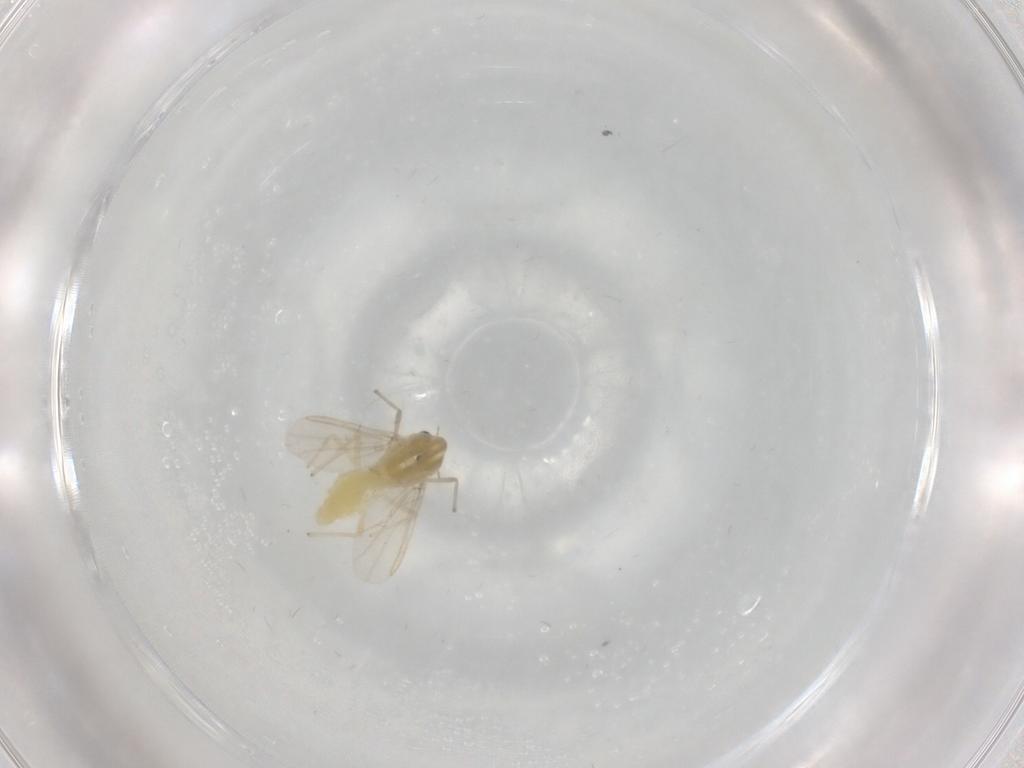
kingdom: Animalia
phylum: Arthropoda
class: Insecta
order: Diptera
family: Chironomidae
